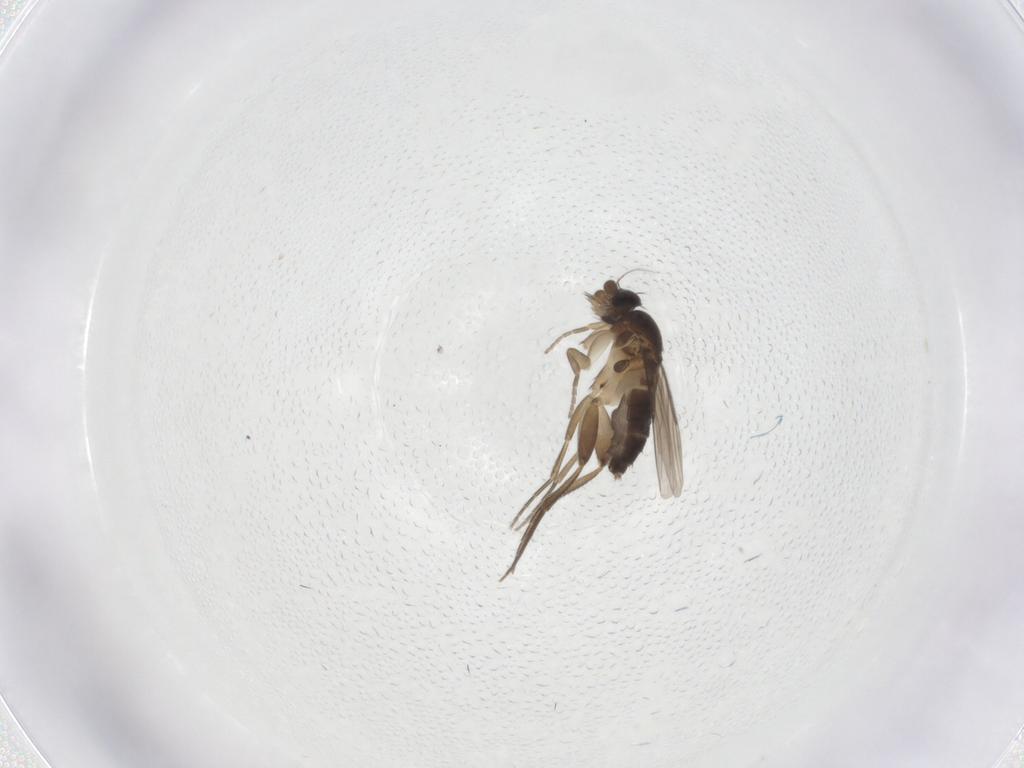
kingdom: Animalia
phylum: Arthropoda
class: Insecta
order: Diptera
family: Phoridae
